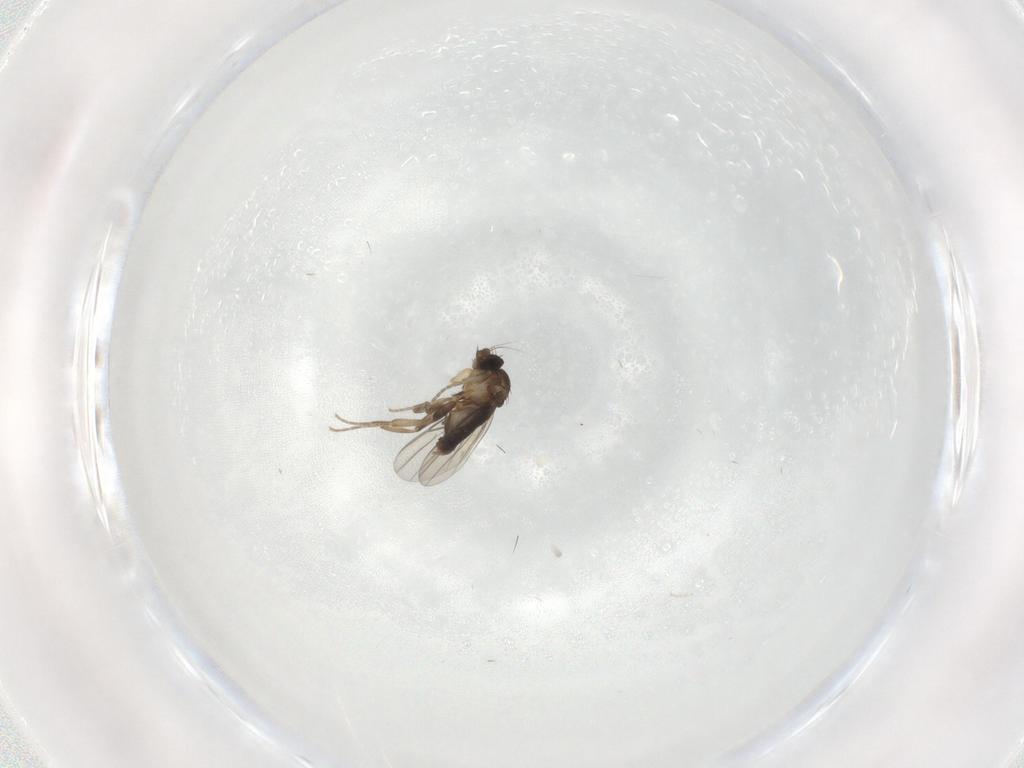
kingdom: Animalia
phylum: Arthropoda
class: Insecta
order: Diptera
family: Phoridae
